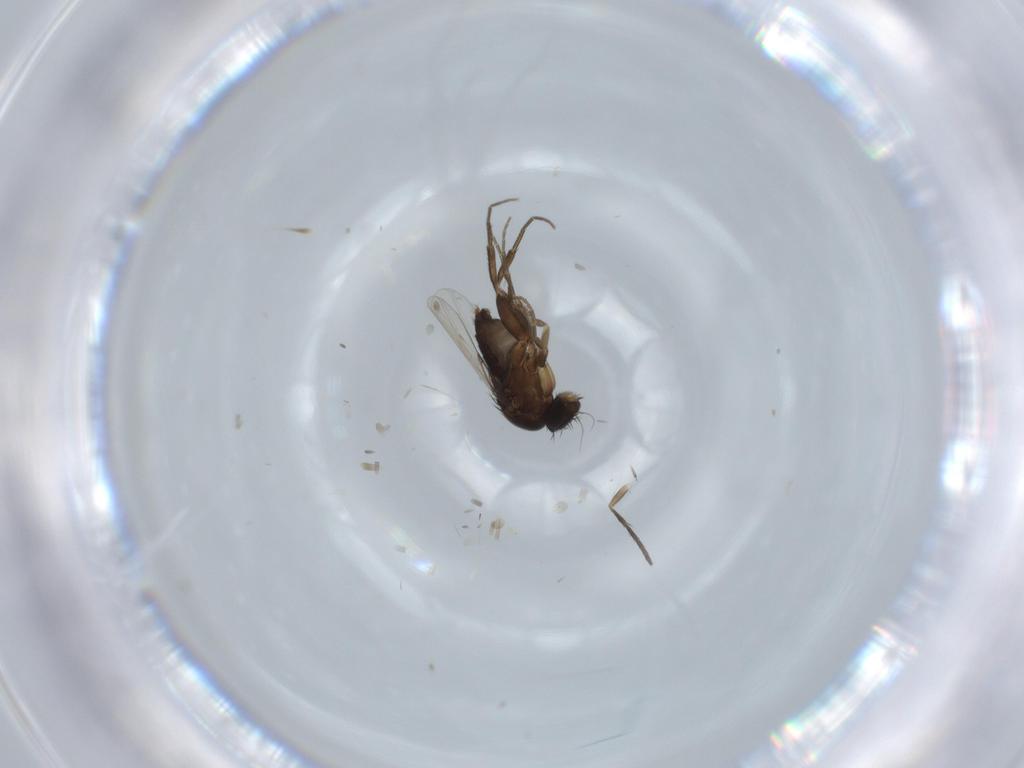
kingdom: Animalia
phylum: Arthropoda
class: Insecta
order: Diptera
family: Phoridae
